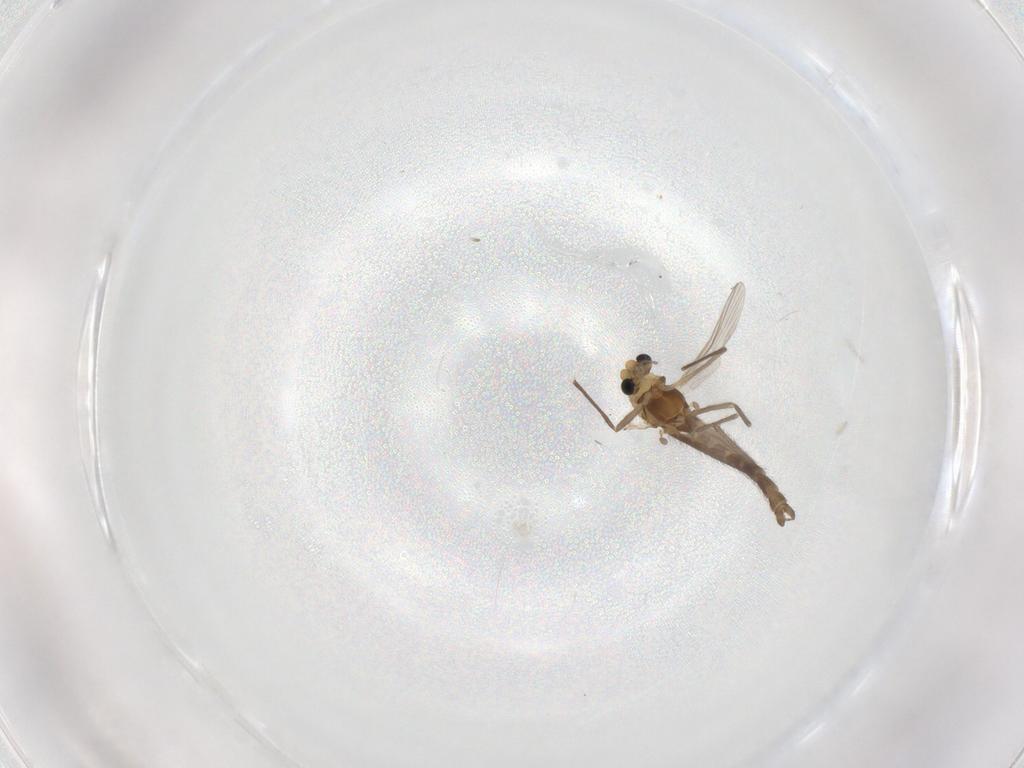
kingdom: Animalia
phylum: Arthropoda
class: Insecta
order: Diptera
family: Chironomidae
